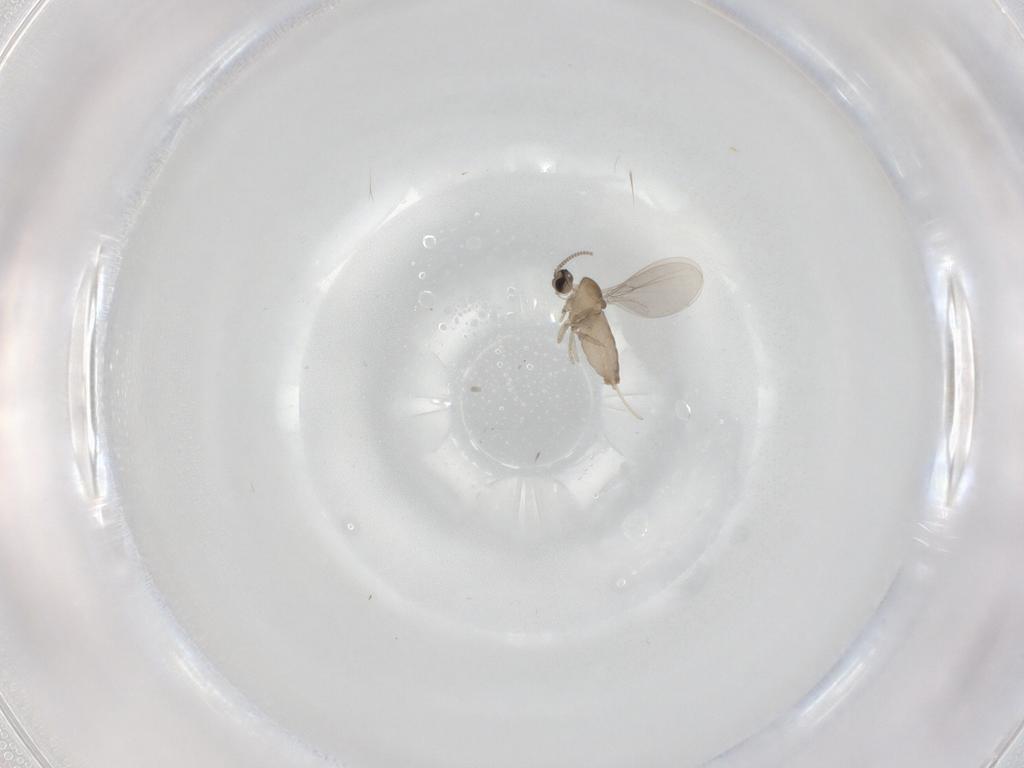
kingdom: Animalia
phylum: Arthropoda
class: Insecta
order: Diptera
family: Cecidomyiidae
